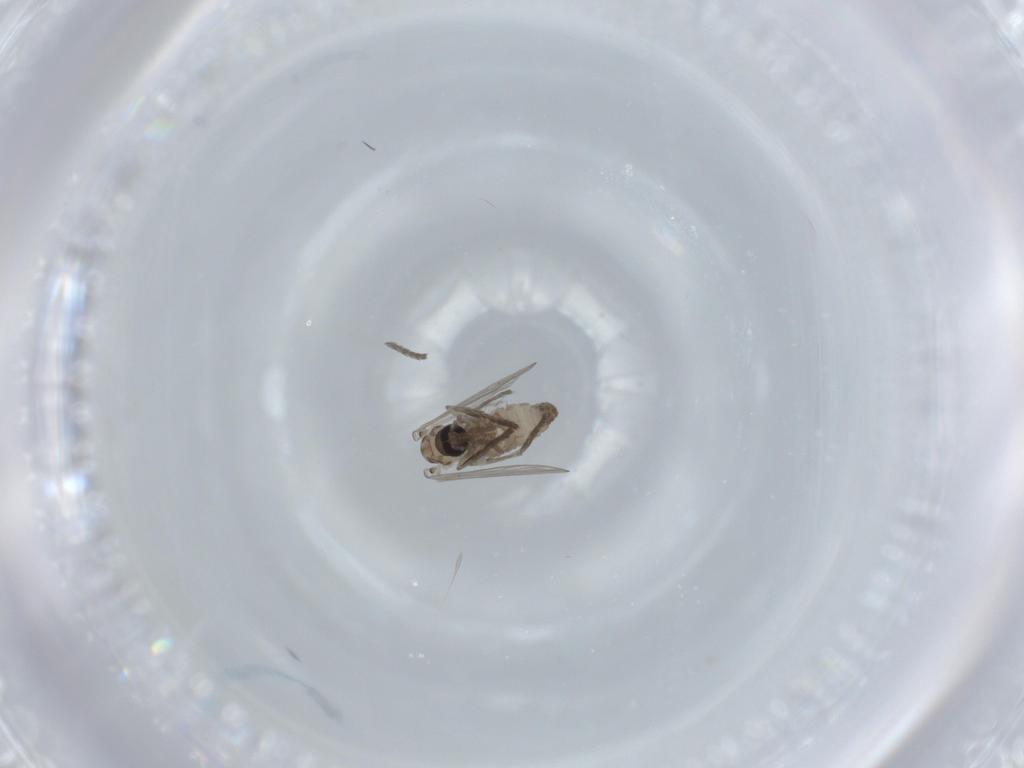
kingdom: Animalia
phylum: Arthropoda
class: Insecta
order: Diptera
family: Psychodidae
